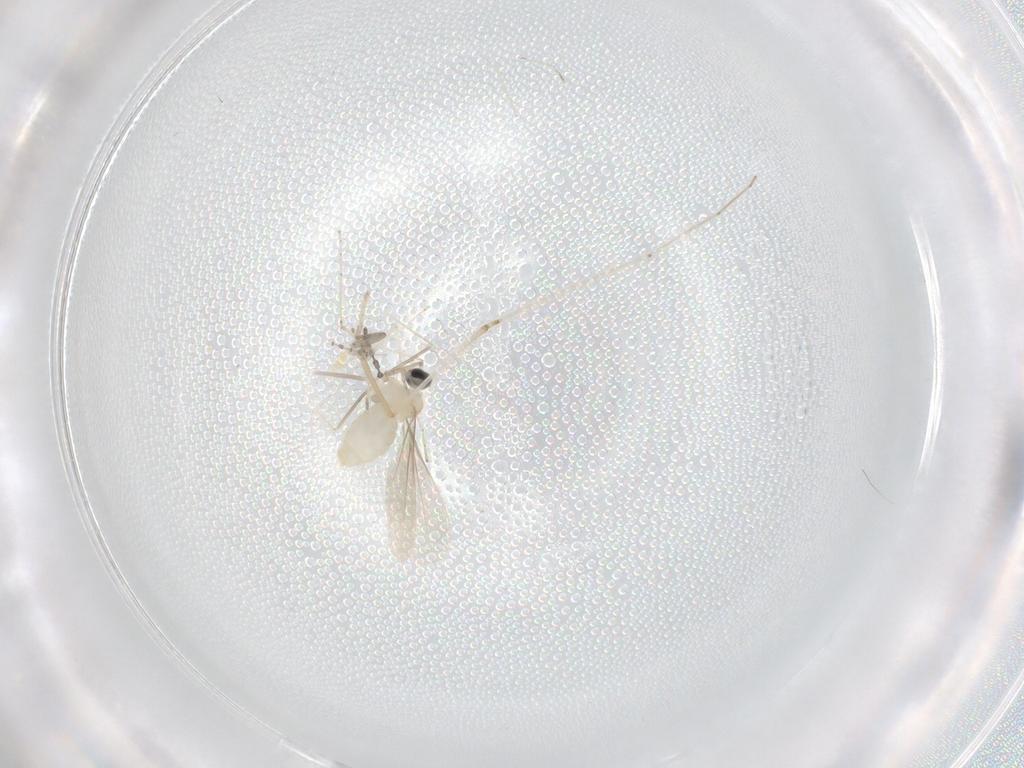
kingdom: Animalia
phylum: Arthropoda
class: Insecta
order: Diptera
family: Cecidomyiidae
